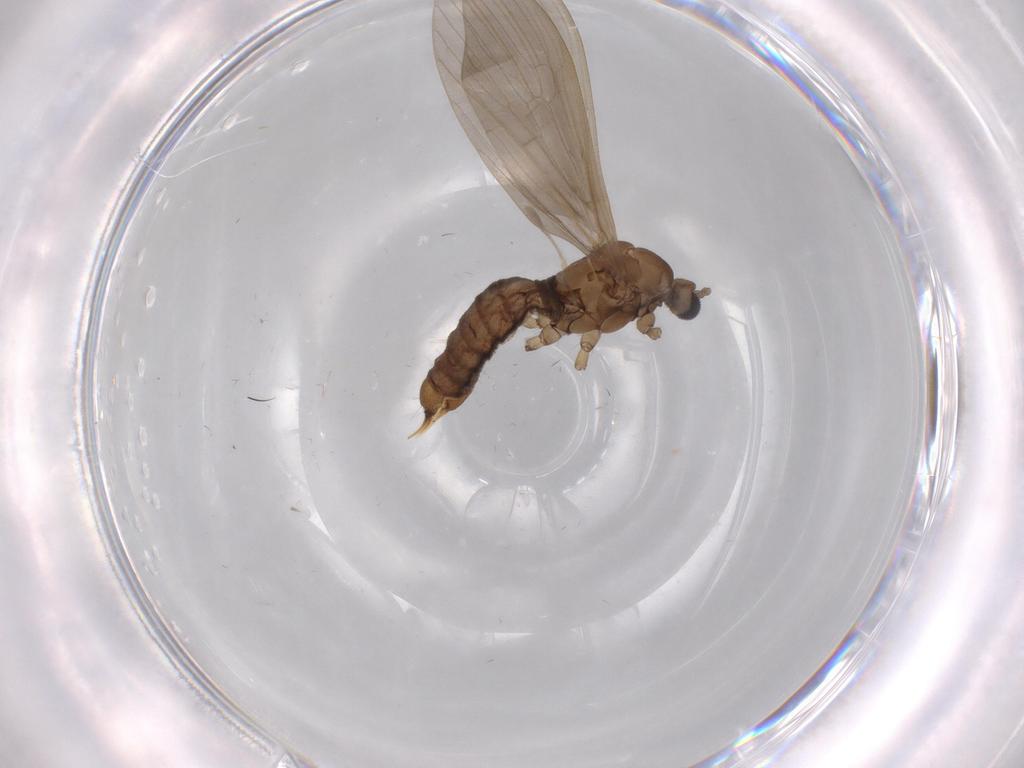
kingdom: Animalia
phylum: Arthropoda
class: Insecta
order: Diptera
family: Limoniidae
